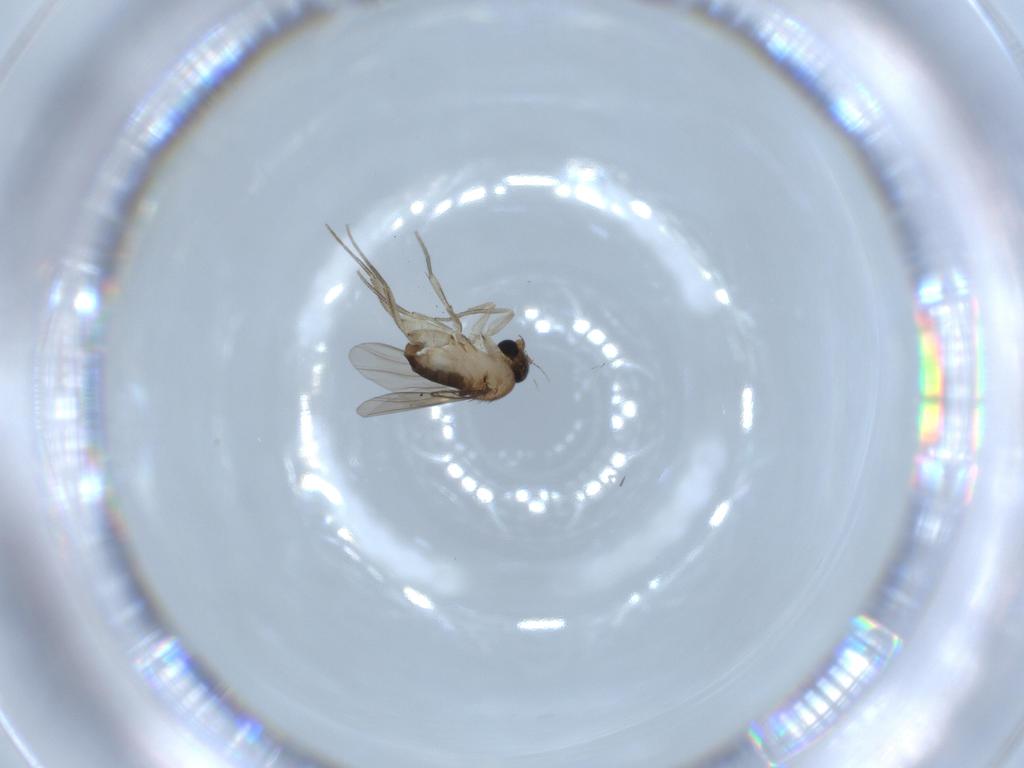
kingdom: Animalia
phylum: Arthropoda
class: Insecta
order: Diptera
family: Phoridae
